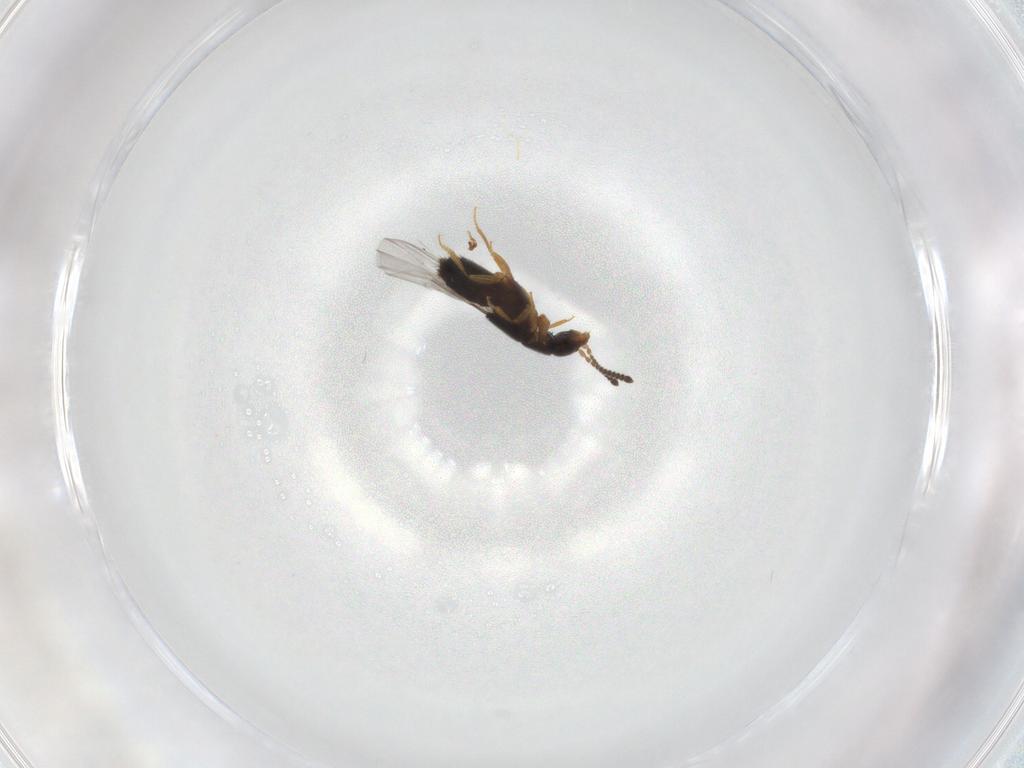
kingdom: Animalia
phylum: Arthropoda
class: Insecta
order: Coleoptera
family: Staphylinidae
